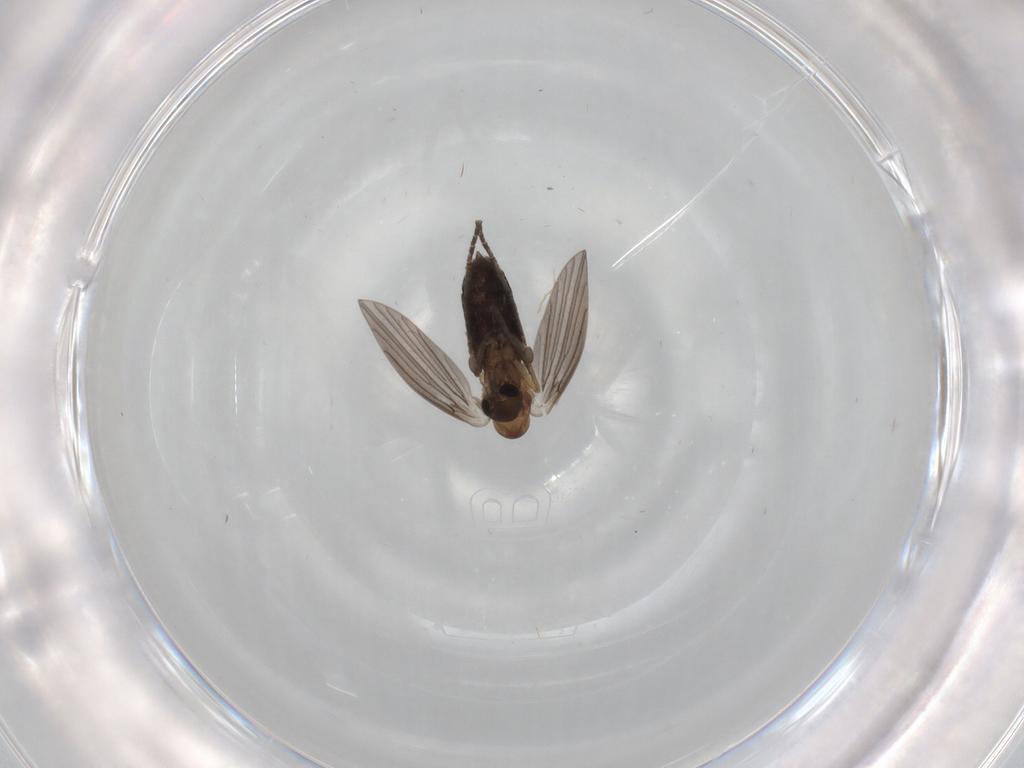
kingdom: Animalia
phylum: Arthropoda
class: Insecta
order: Diptera
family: Psychodidae
